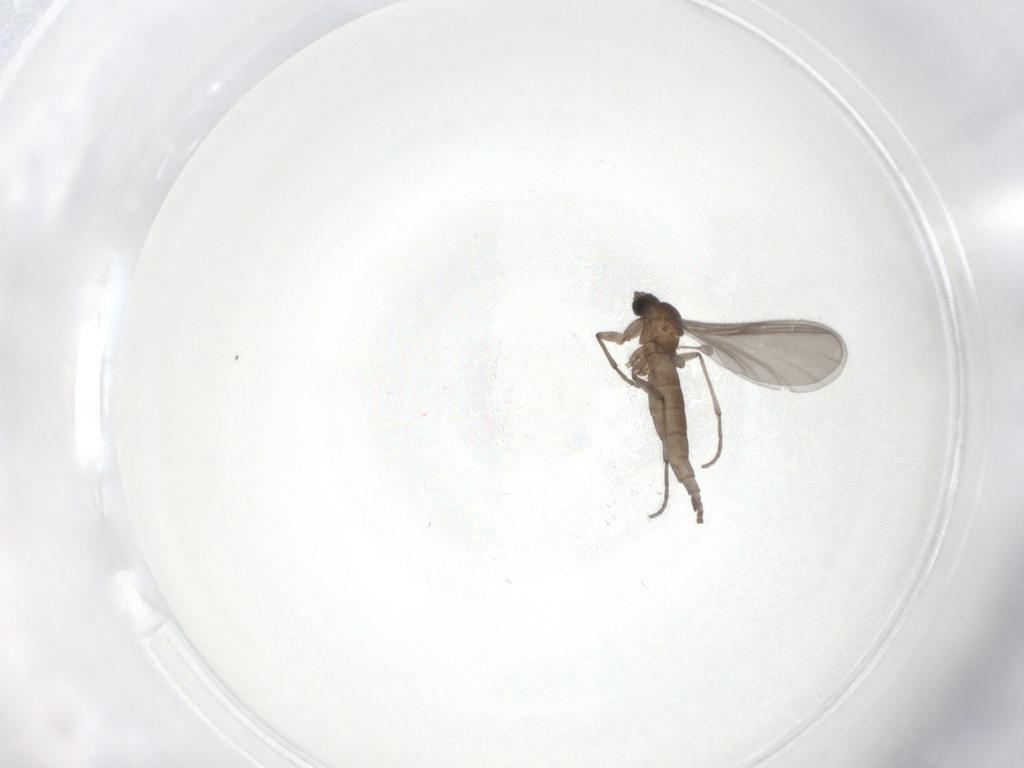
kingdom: Animalia
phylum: Arthropoda
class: Insecta
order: Diptera
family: Sciaridae
